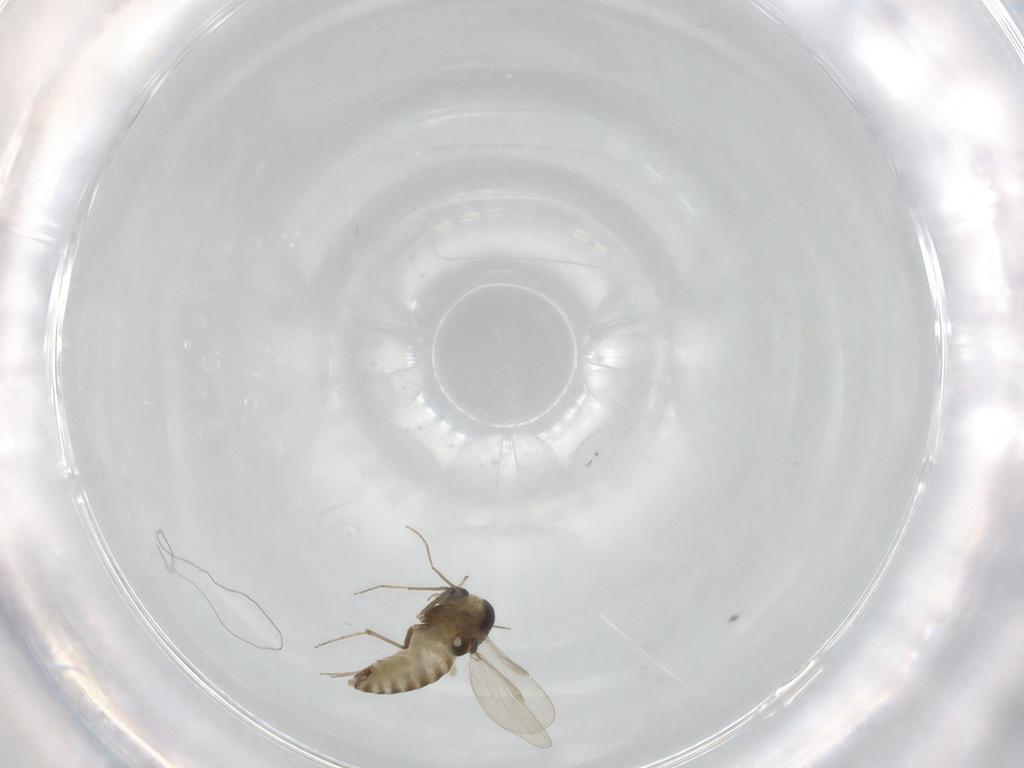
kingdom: Animalia
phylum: Arthropoda
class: Insecta
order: Diptera
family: Chironomidae
